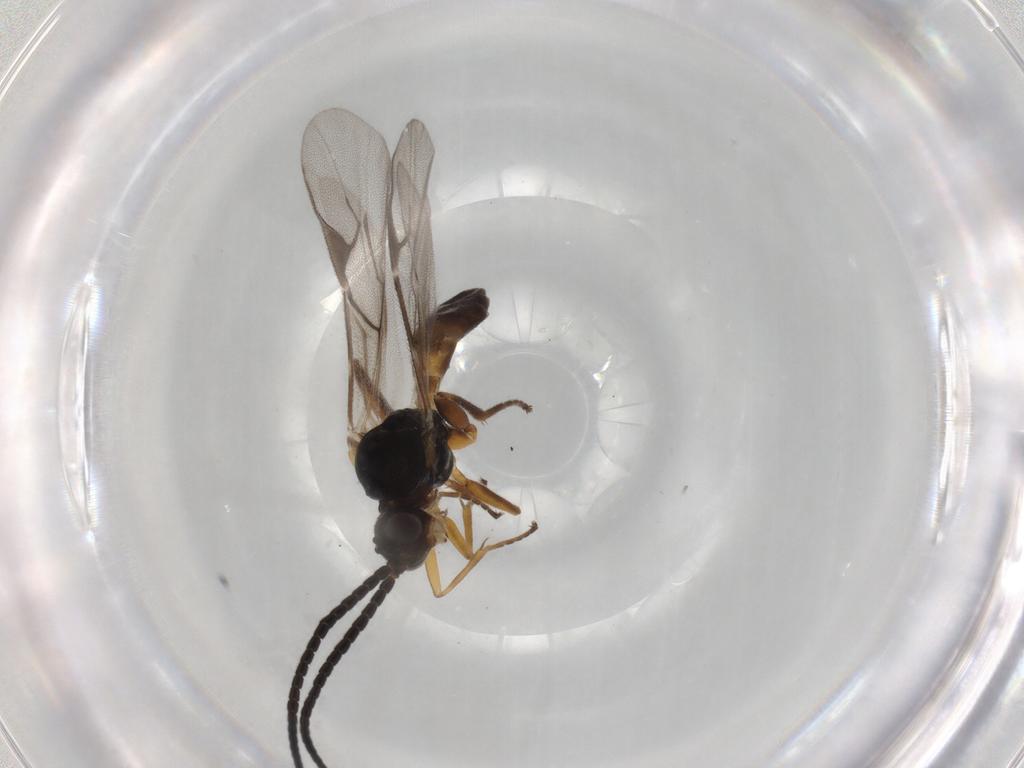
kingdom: Animalia
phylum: Arthropoda
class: Insecta
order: Hymenoptera
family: Braconidae
